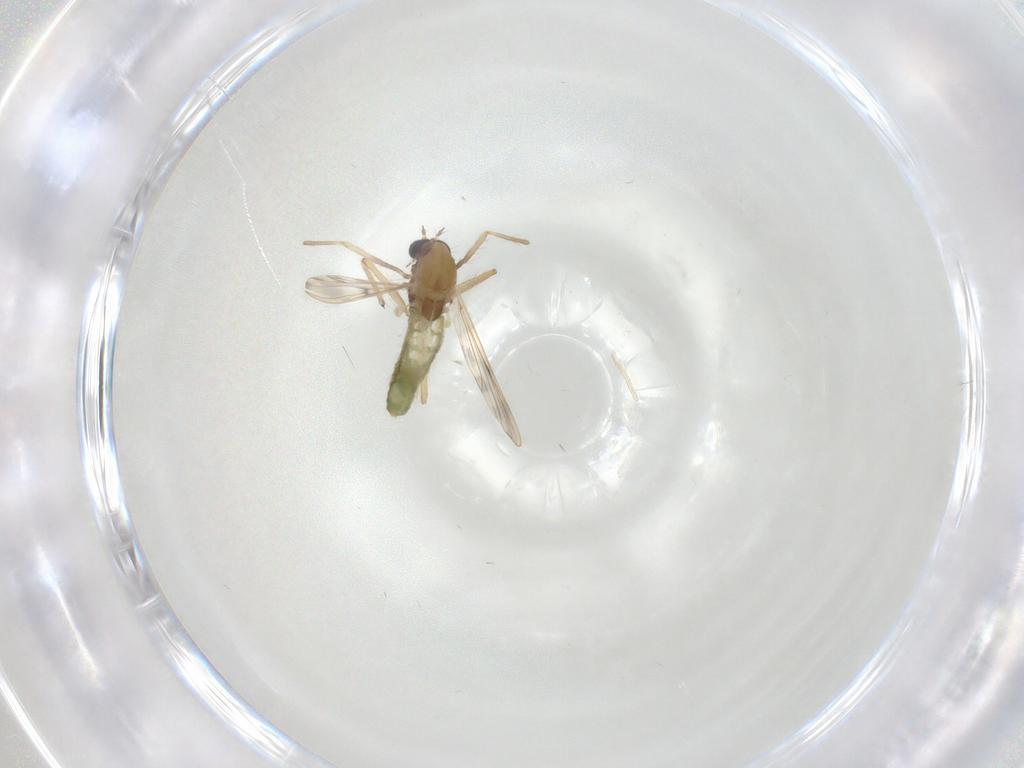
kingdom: Animalia
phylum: Arthropoda
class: Insecta
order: Diptera
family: Chironomidae
